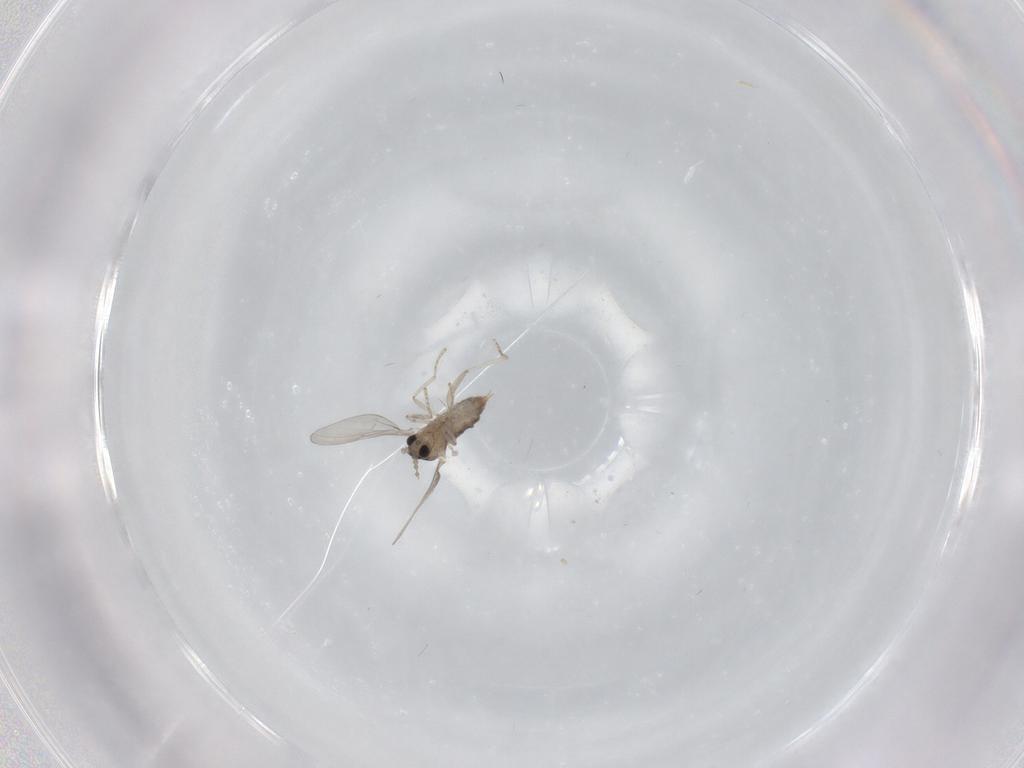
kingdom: Animalia
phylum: Arthropoda
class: Insecta
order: Diptera
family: Cecidomyiidae
